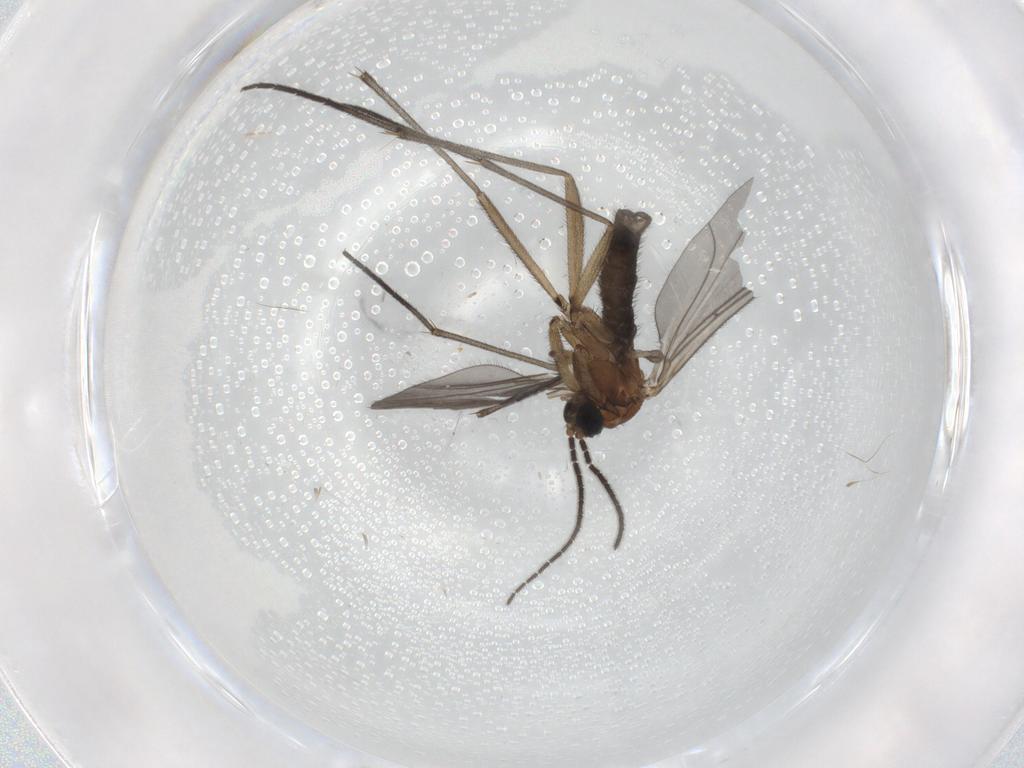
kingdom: Animalia
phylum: Arthropoda
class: Insecta
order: Diptera
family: Sciaridae
